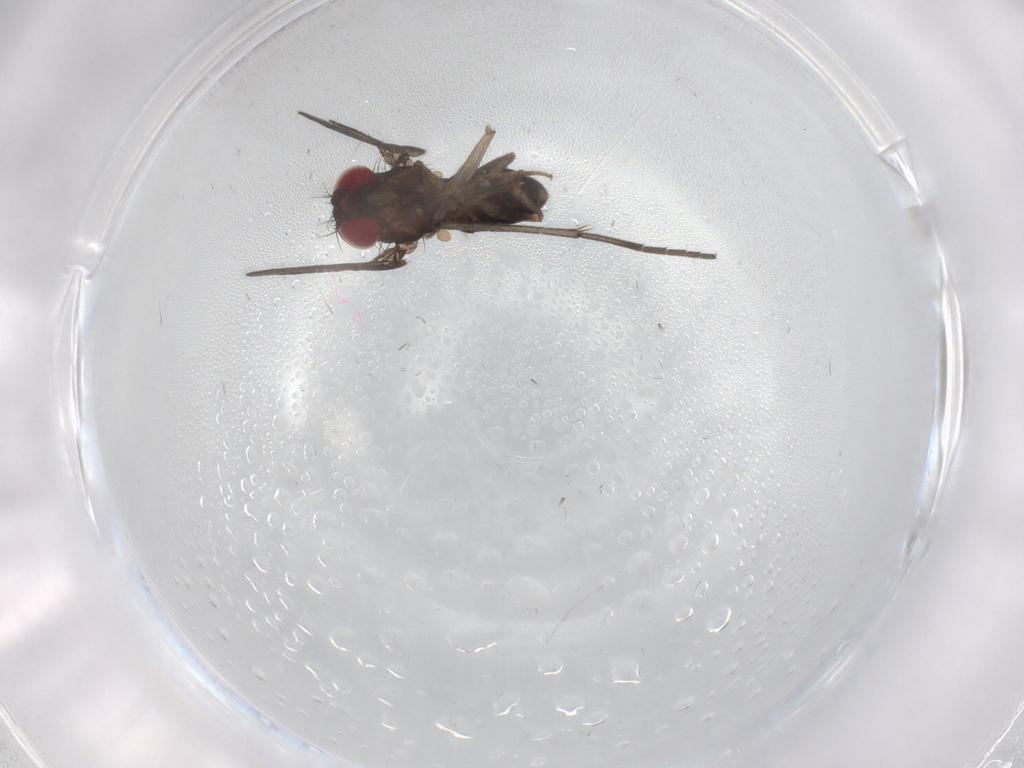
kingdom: Animalia
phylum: Arthropoda
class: Insecta
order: Diptera
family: Drosophilidae
